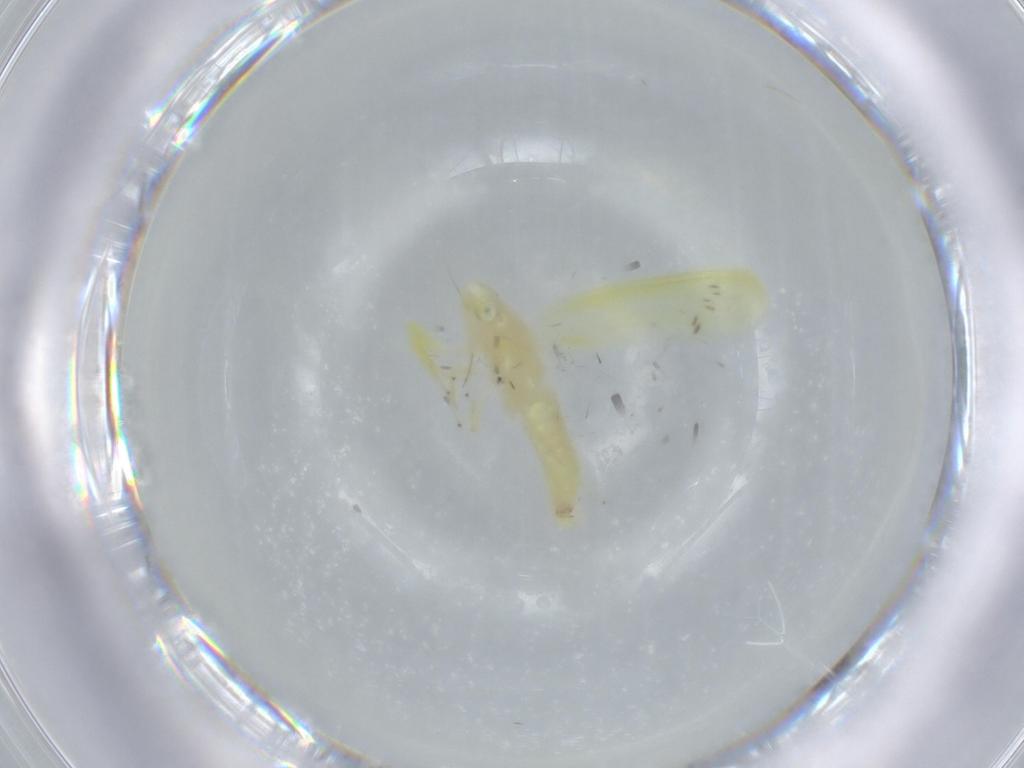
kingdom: Animalia
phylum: Arthropoda
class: Insecta
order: Hemiptera
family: Cicadellidae
